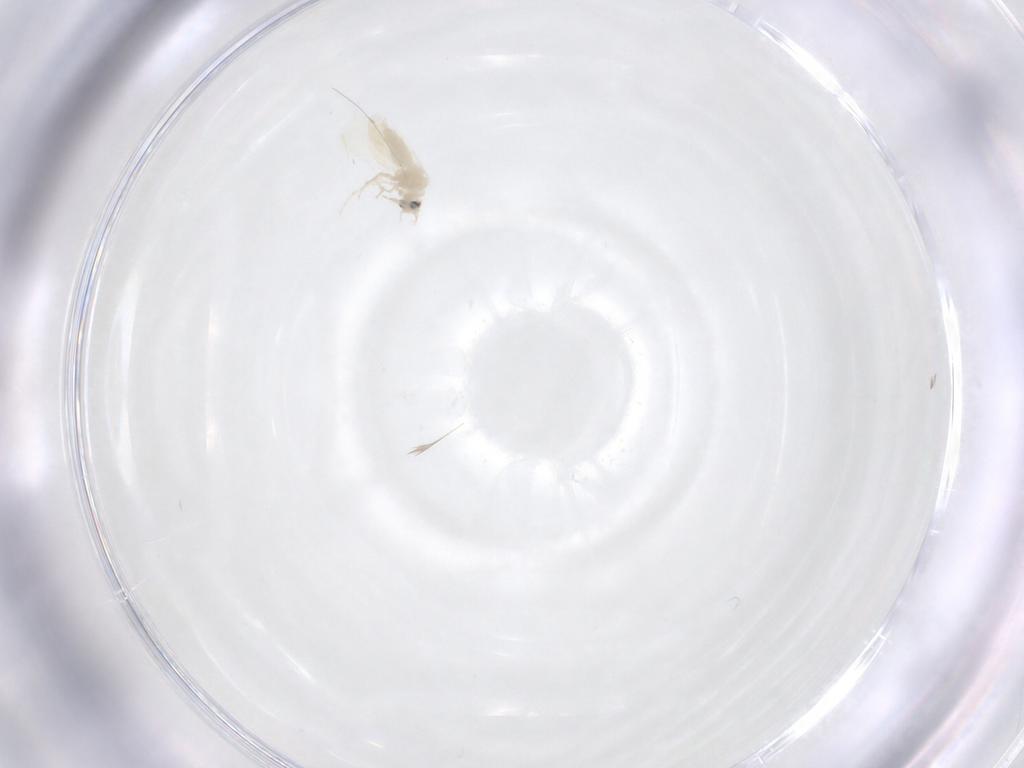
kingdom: Animalia
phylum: Arthropoda
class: Insecta
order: Hemiptera
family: Aleyrodidae
